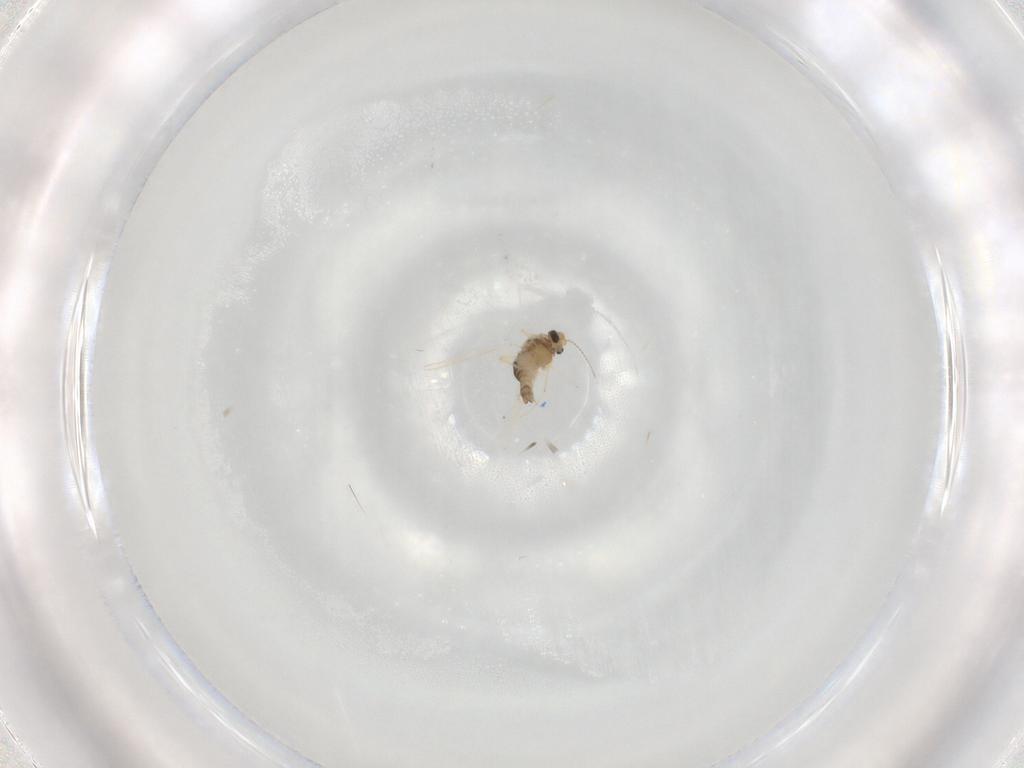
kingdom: Animalia
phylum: Arthropoda
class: Insecta
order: Diptera
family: Chironomidae
